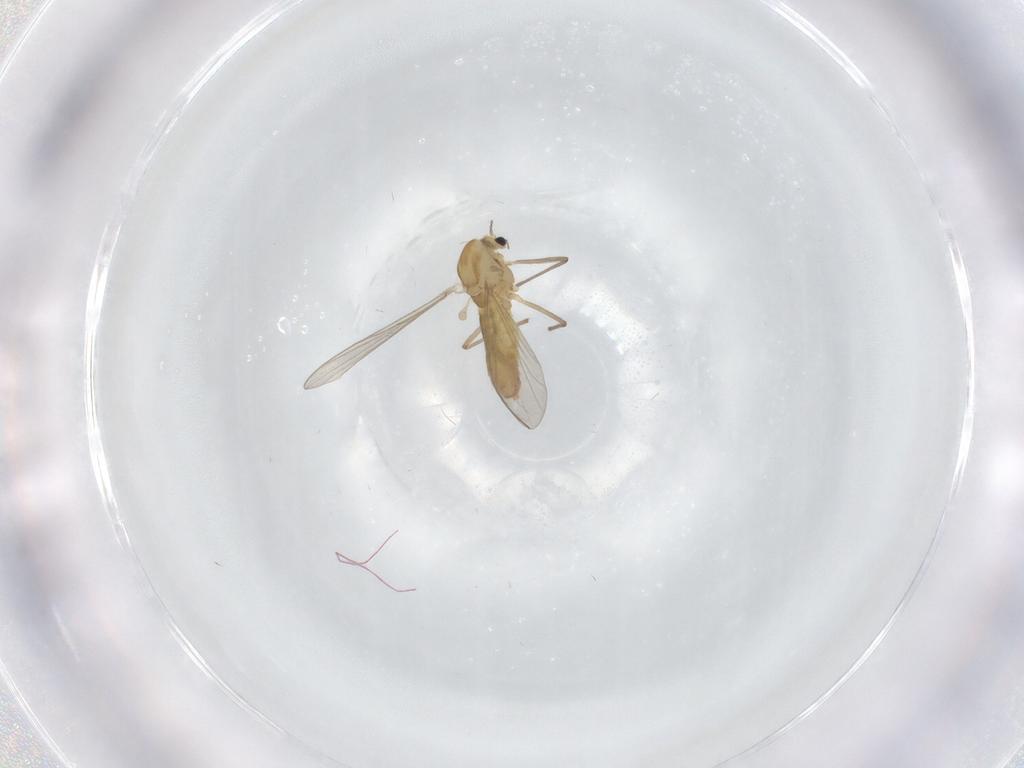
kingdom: Animalia
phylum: Arthropoda
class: Insecta
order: Diptera
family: Chironomidae
